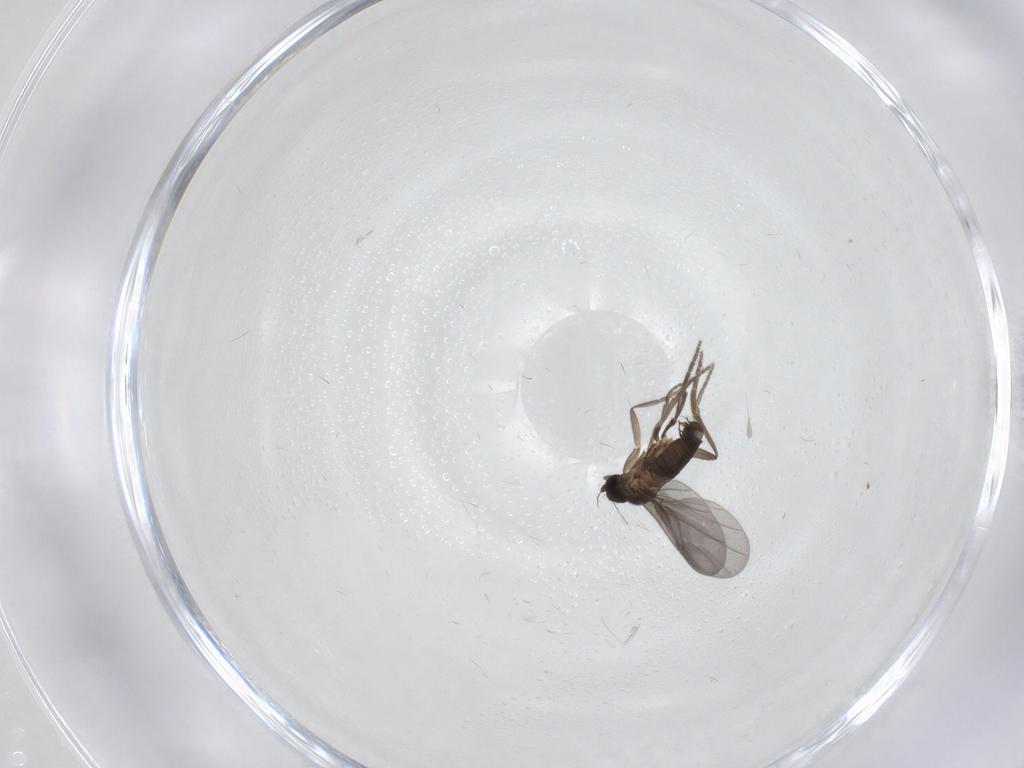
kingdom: Animalia
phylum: Arthropoda
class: Insecta
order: Diptera
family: Phoridae
